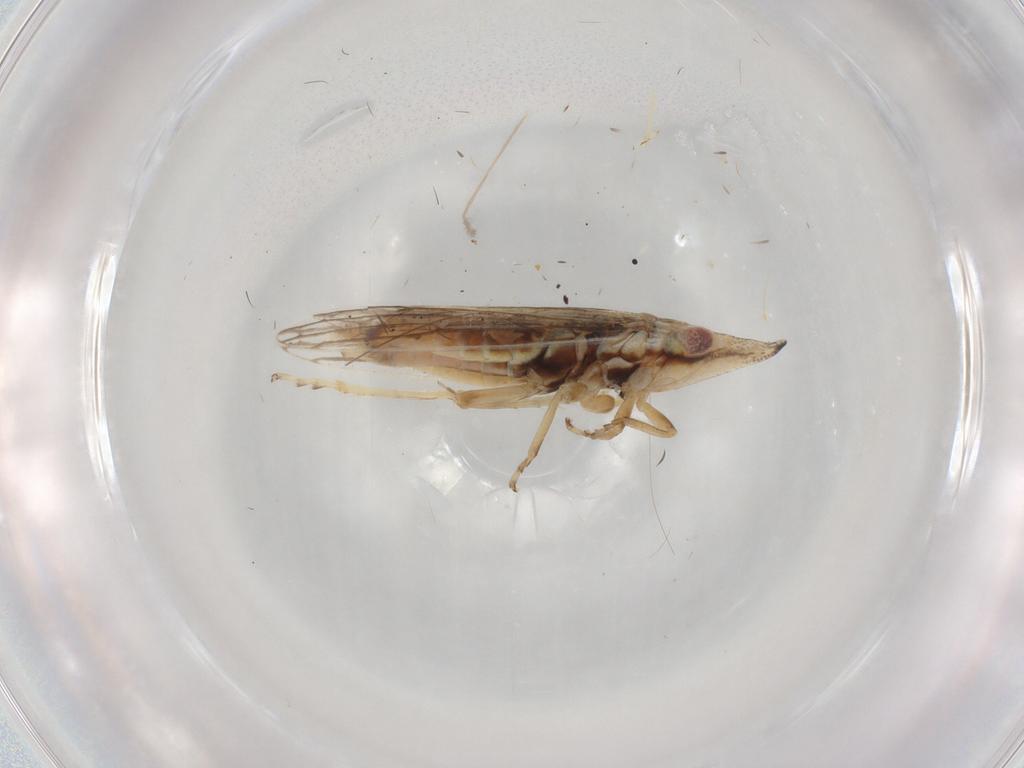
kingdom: Animalia
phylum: Arthropoda
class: Insecta
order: Hemiptera
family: Cicadellidae
